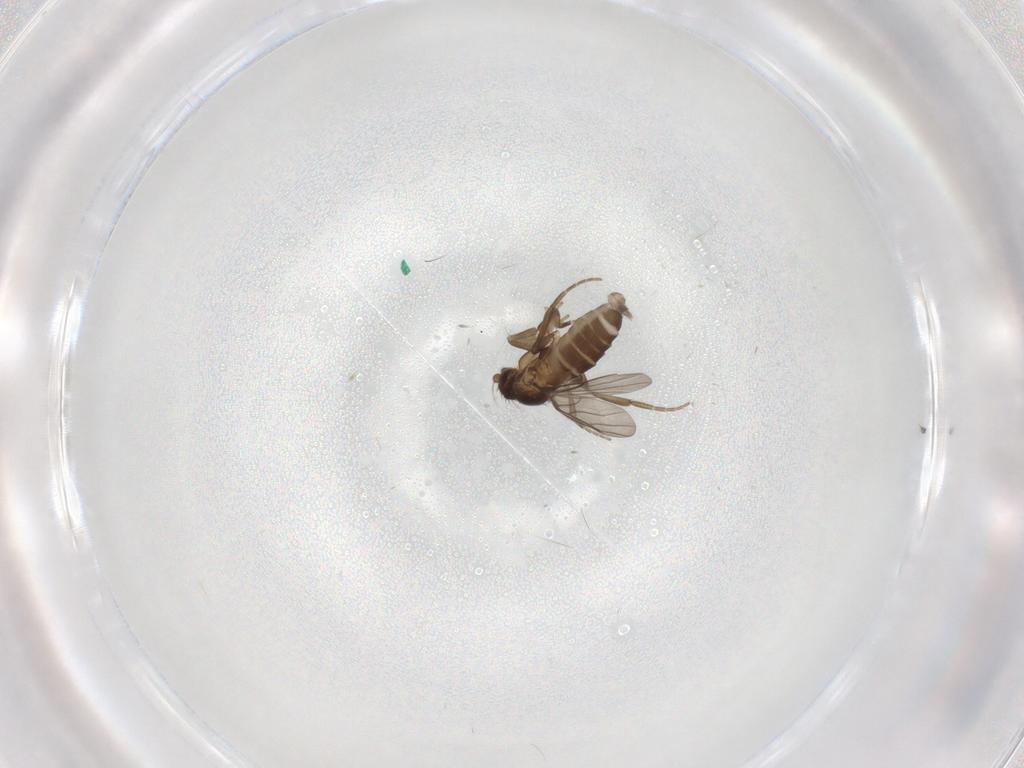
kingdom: Animalia
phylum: Arthropoda
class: Insecta
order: Diptera
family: Phoridae
